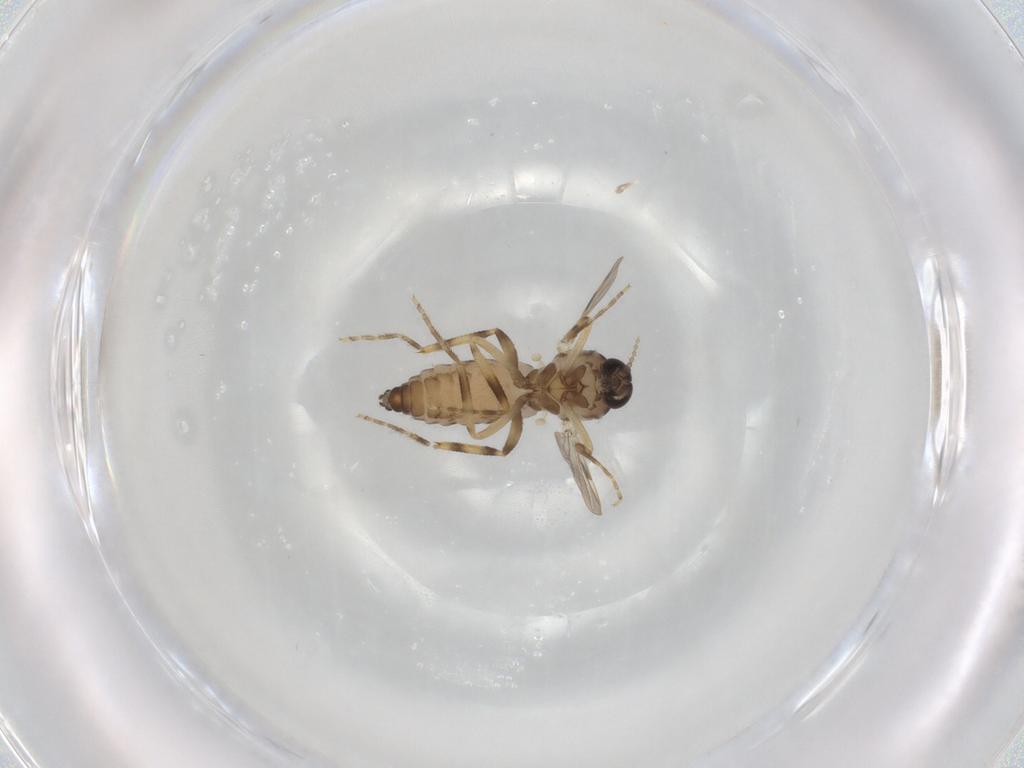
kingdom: Animalia
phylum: Arthropoda
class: Insecta
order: Diptera
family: Ceratopogonidae
